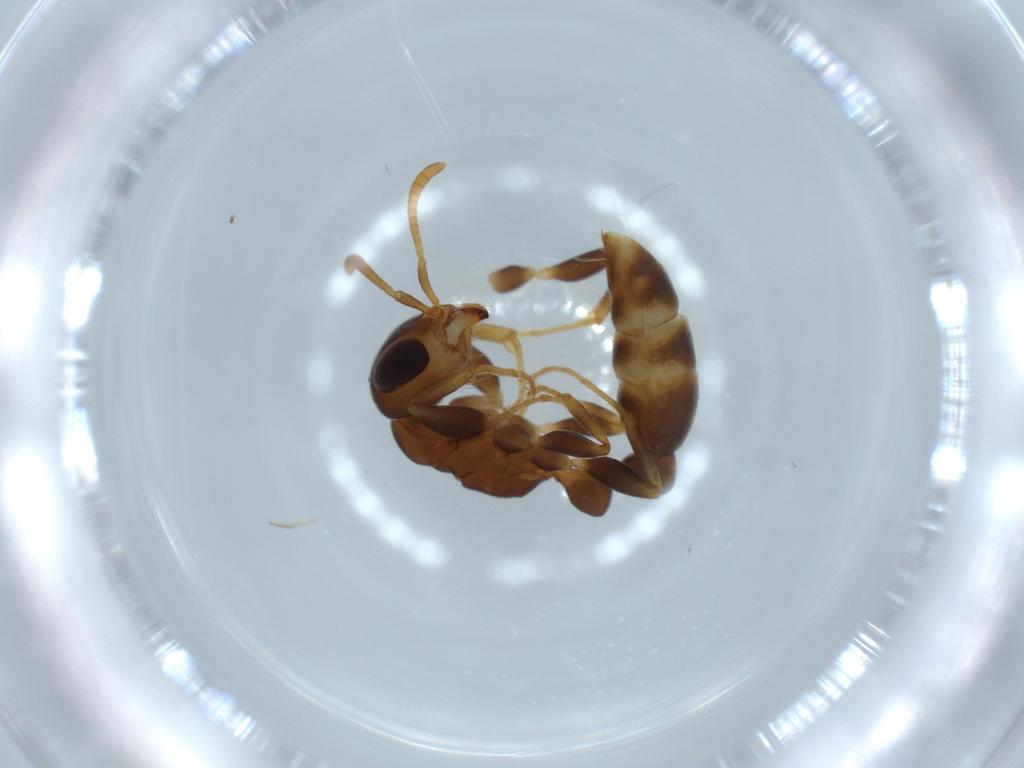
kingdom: Animalia
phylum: Arthropoda
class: Insecta
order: Hymenoptera
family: Formicidae
